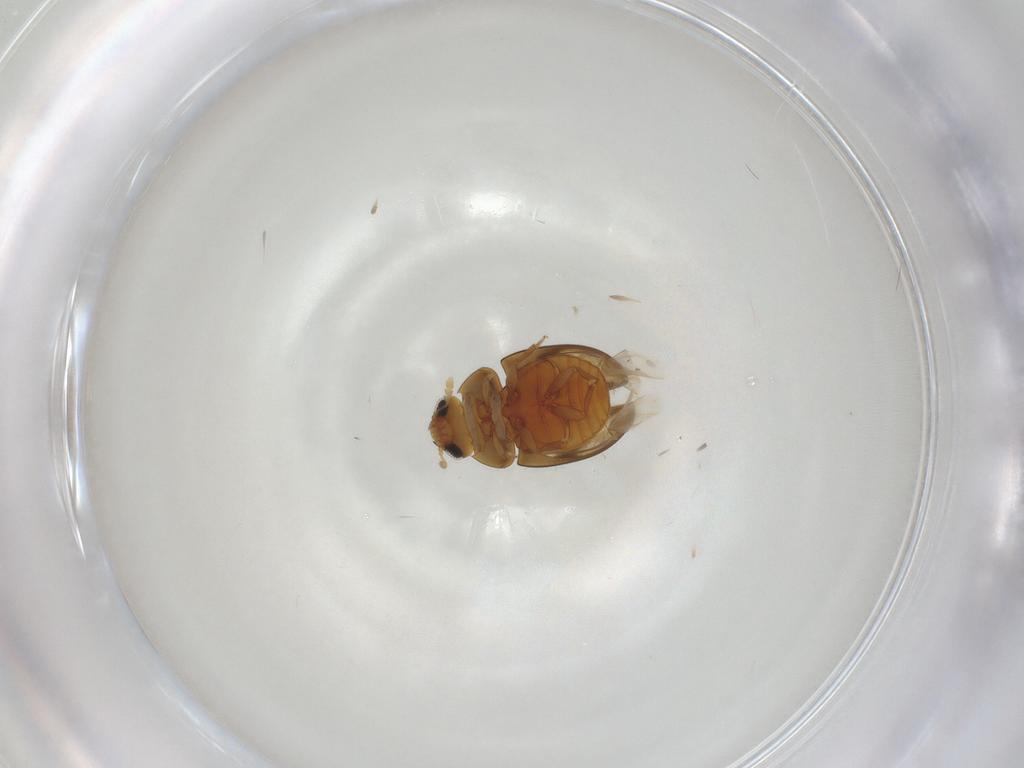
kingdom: Animalia
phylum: Arthropoda
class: Insecta
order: Coleoptera
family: Phalacridae
